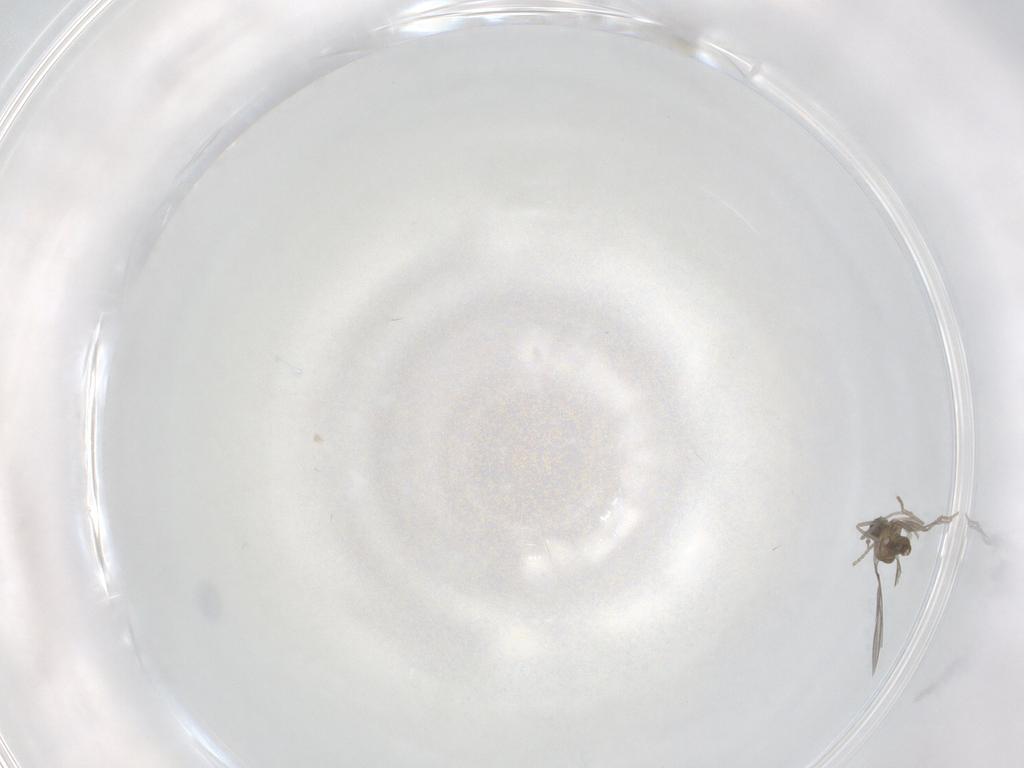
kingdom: Animalia
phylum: Arthropoda
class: Insecta
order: Diptera
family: Cecidomyiidae
